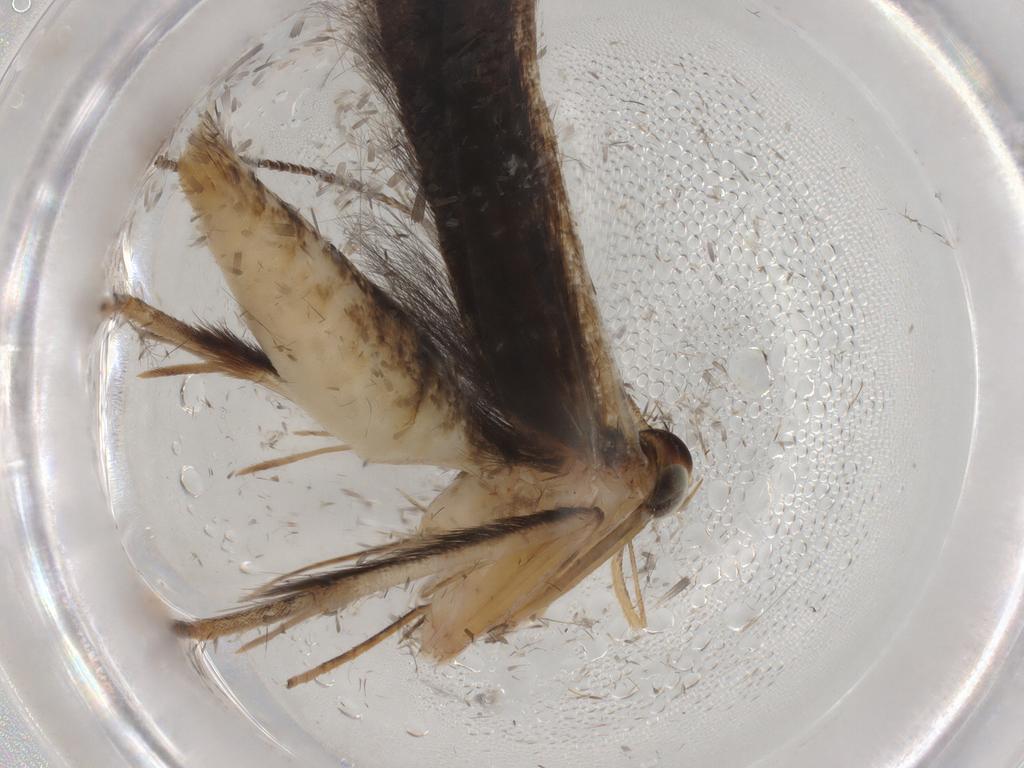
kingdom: Animalia
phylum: Arthropoda
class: Insecta
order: Lepidoptera
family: Gracillariidae
